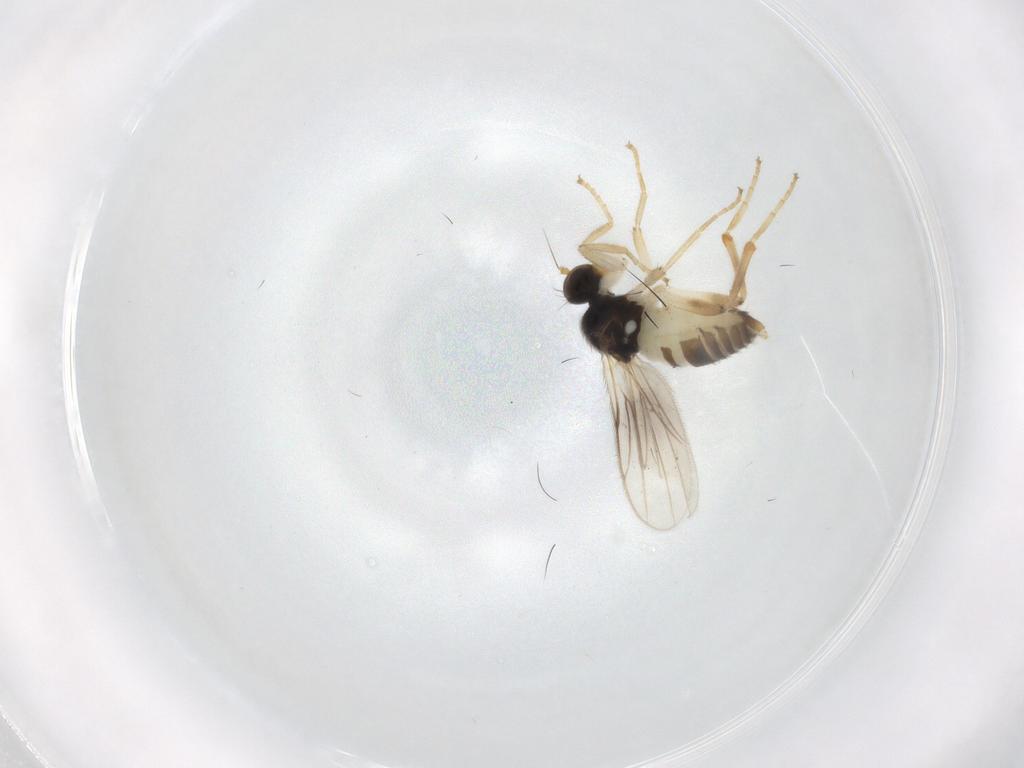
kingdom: Animalia
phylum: Arthropoda
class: Insecta
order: Diptera
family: Hybotidae
